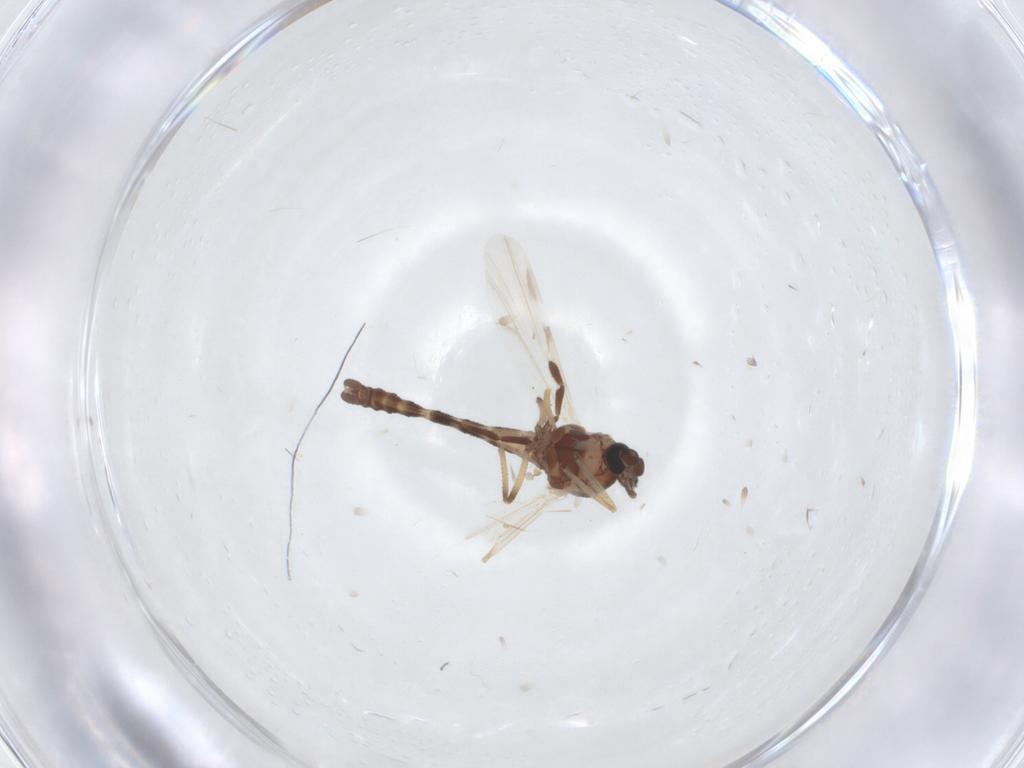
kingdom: Animalia
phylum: Arthropoda
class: Insecta
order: Diptera
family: Ceratopogonidae
